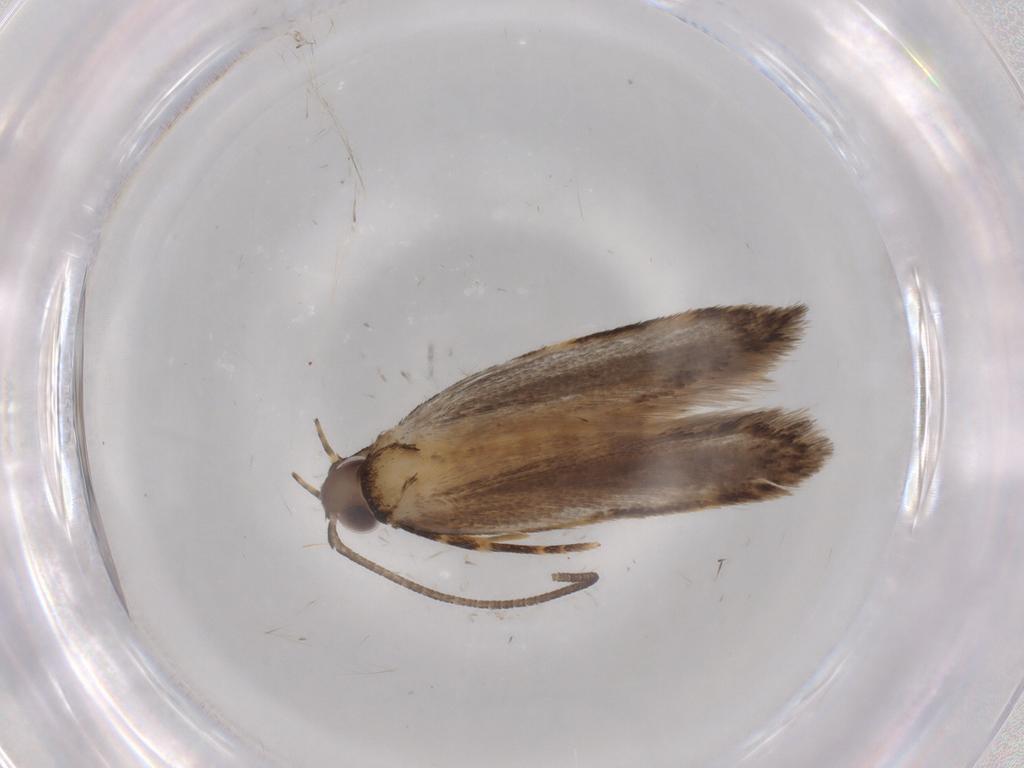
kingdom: Animalia
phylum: Arthropoda
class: Insecta
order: Lepidoptera
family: Autostichidae
